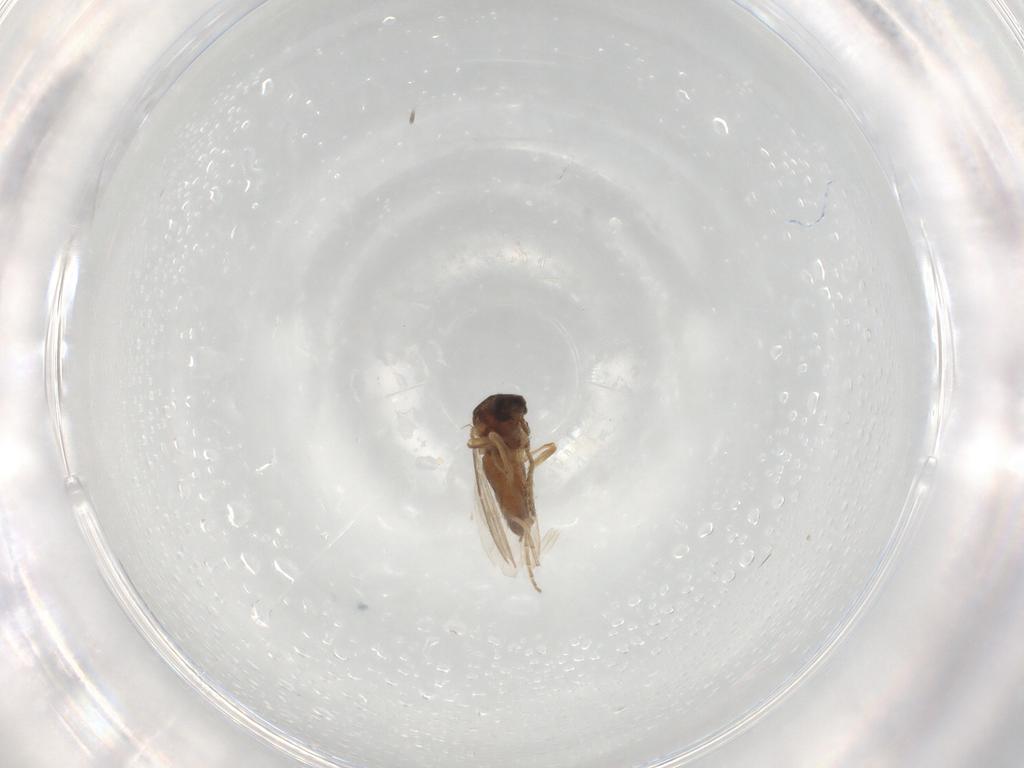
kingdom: Animalia
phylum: Arthropoda
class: Insecta
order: Diptera
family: Ceratopogonidae
